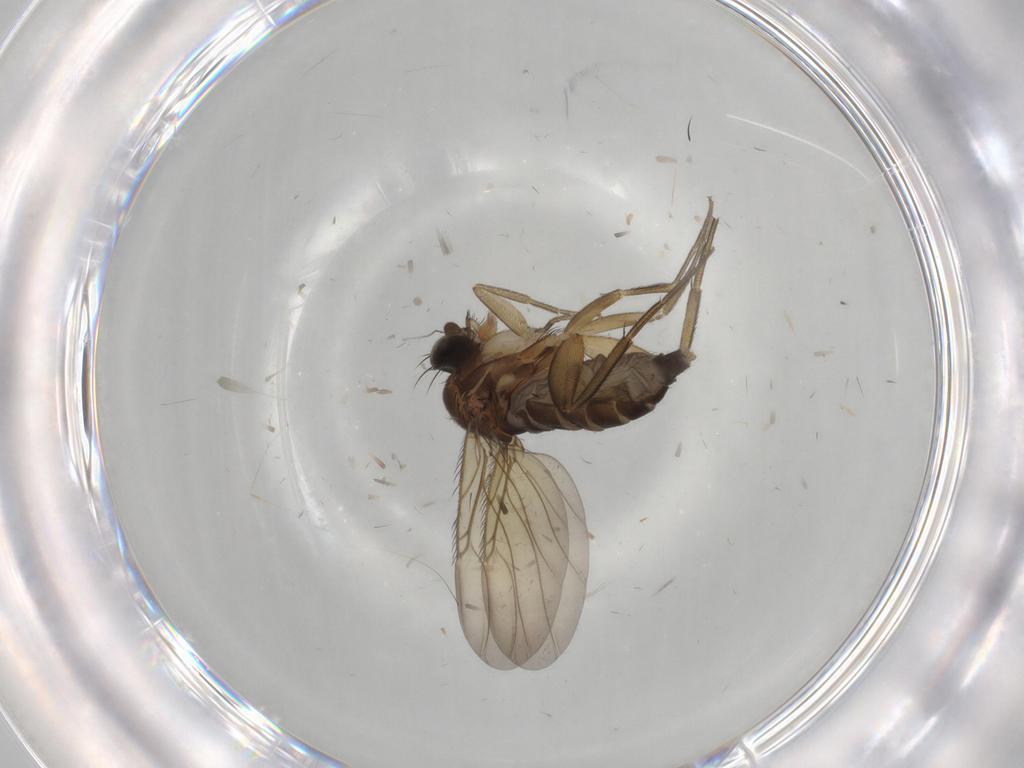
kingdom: Animalia
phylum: Arthropoda
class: Insecta
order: Diptera
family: Phoridae
